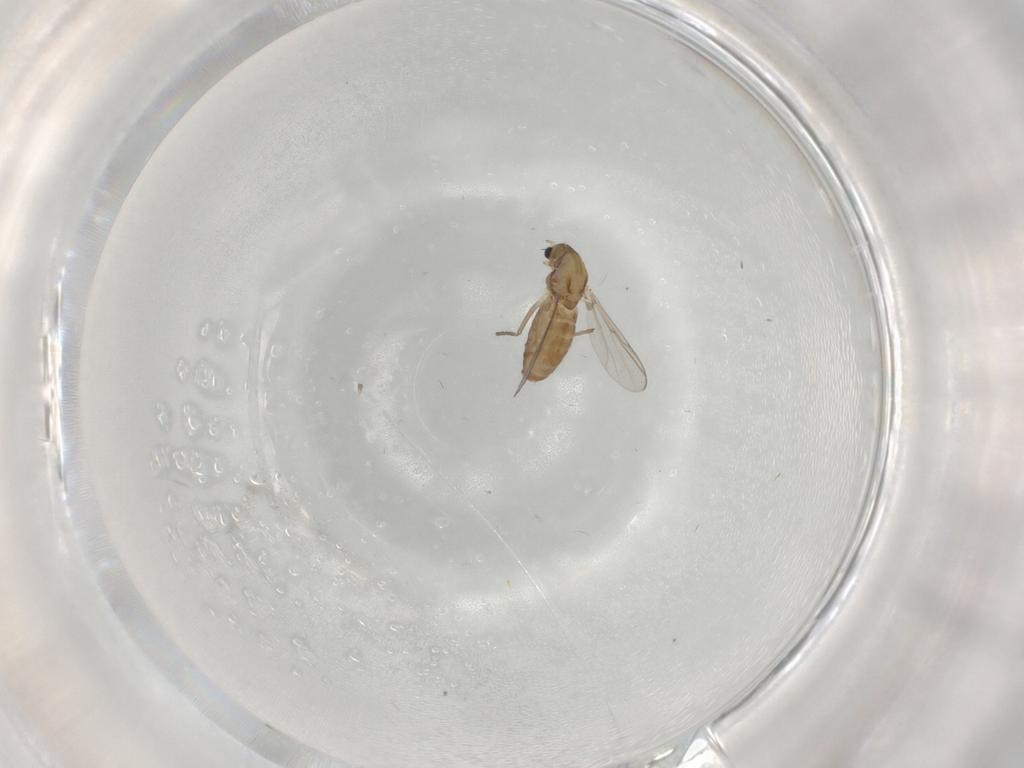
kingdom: Animalia
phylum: Arthropoda
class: Insecta
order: Diptera
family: Chironomidae
